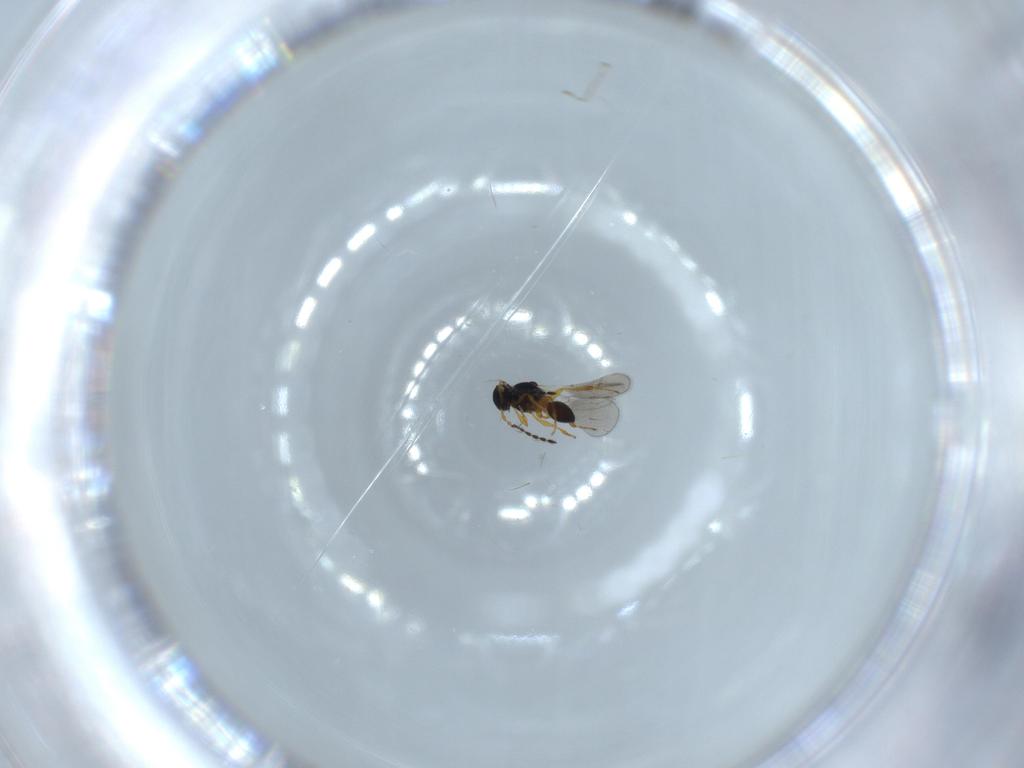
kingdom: Animalia
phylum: Arthropoda
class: Insecta
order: Hymenoptera
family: Platygastridae
